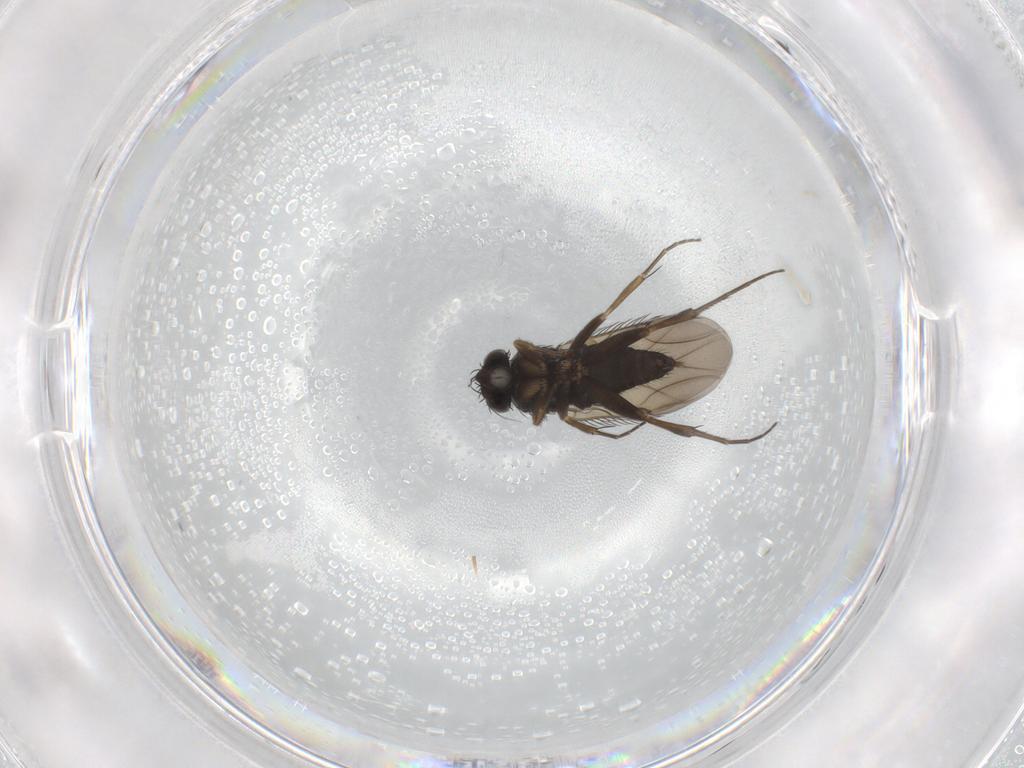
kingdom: Animalia
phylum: Arthropoda
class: Insecta
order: Diptera
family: Phoridae
